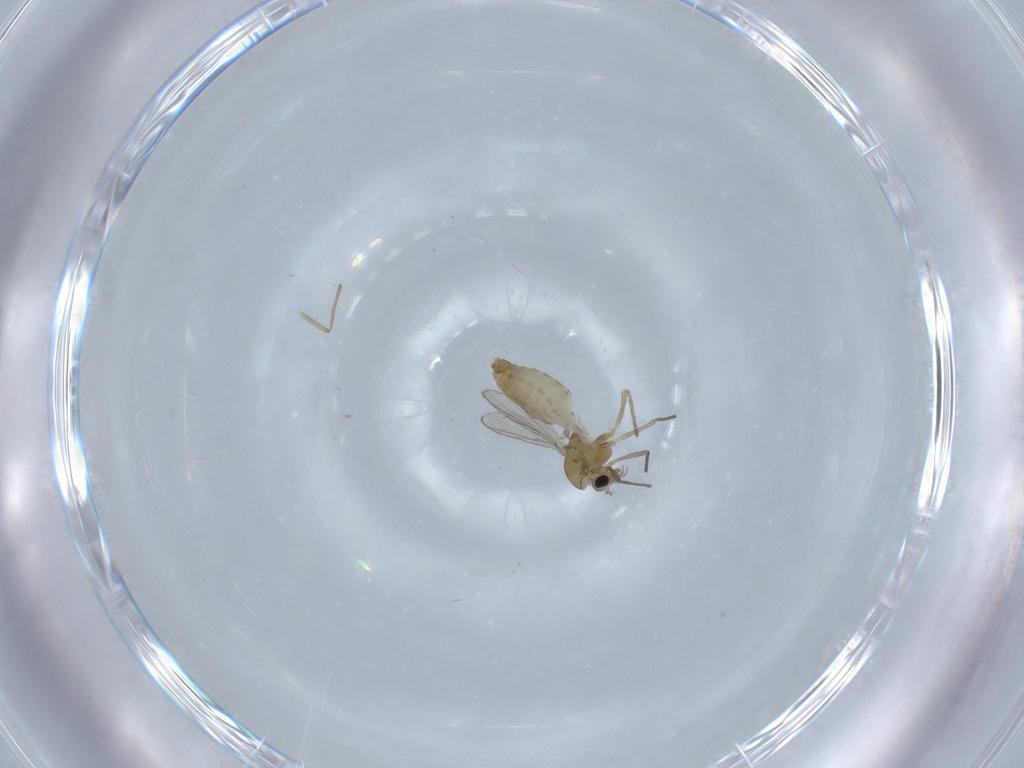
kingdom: Animalia
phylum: Arthropoda
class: Insecta
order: Diptera
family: Chironomidae
